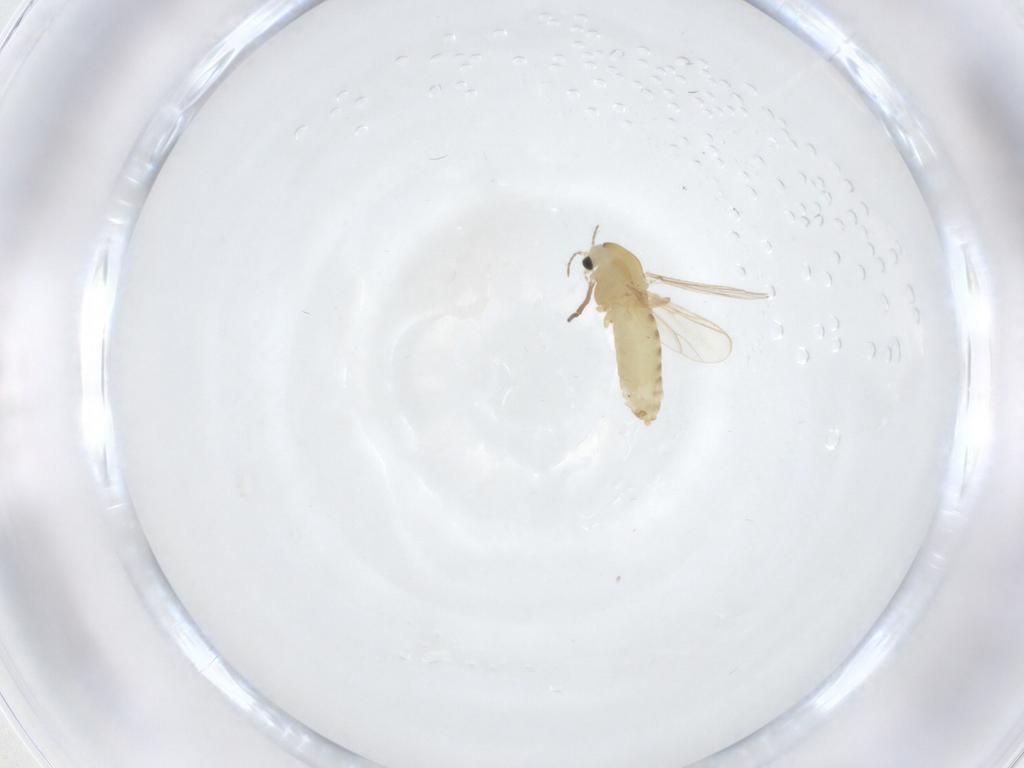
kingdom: Animalia
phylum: Arthropoda
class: Insecta
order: Diptera
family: Chironomidae
